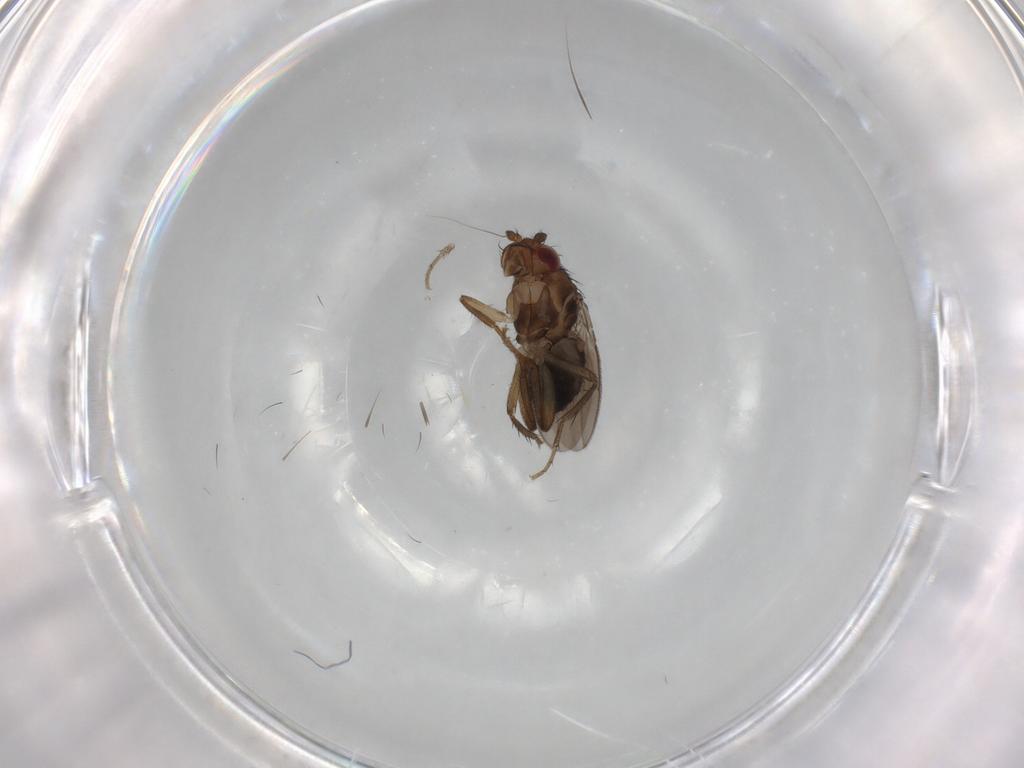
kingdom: Animalia
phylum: Arthropoda
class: Insecta
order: Diptera
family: Sphaeroceridae
